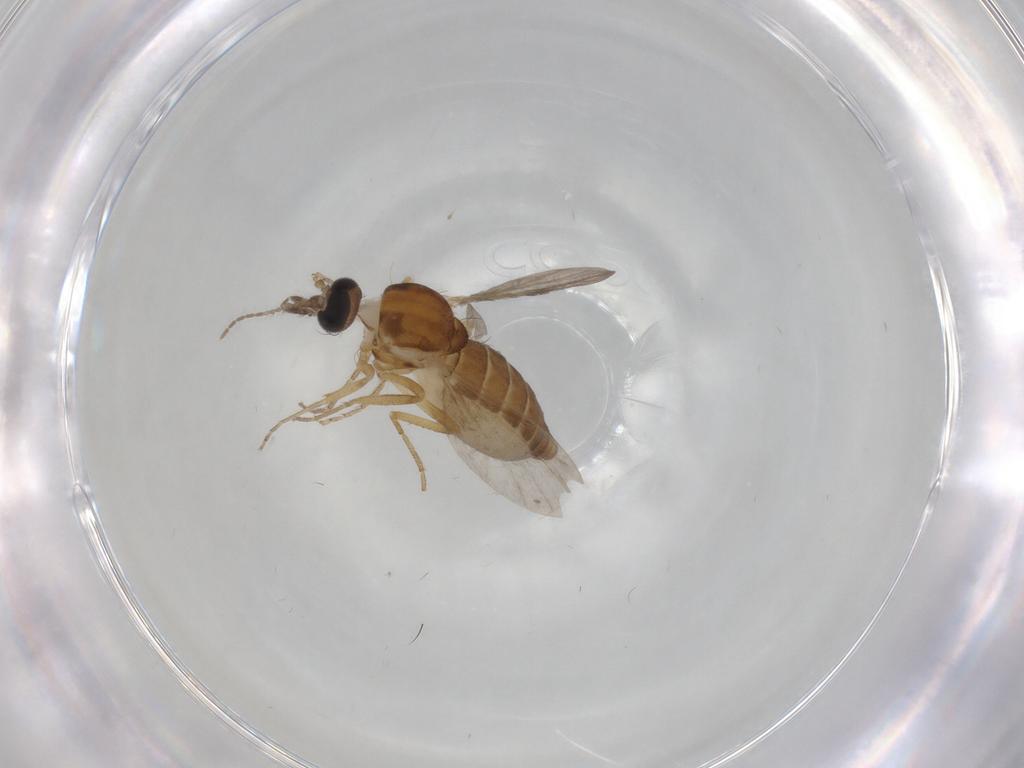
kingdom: Animalia
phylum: Arthropoda
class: Insecta
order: Diptera
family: Ceratopogonidae
